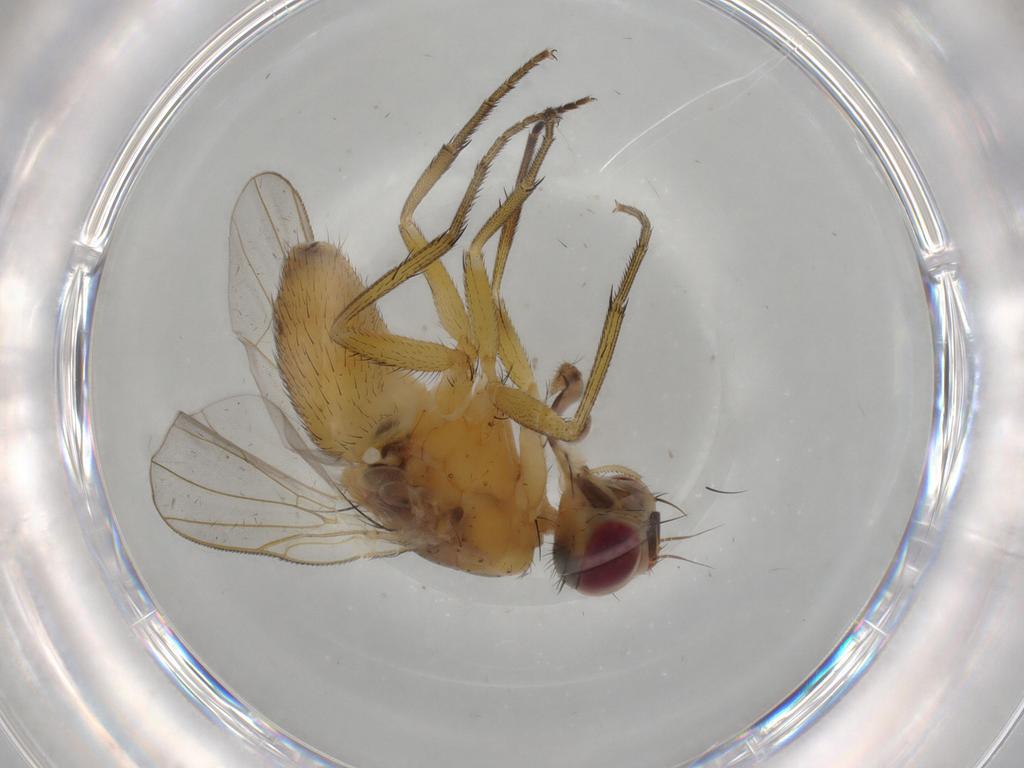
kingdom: Animalia
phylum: Arthropoda
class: Insecta
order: Diptera
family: Muscidae
